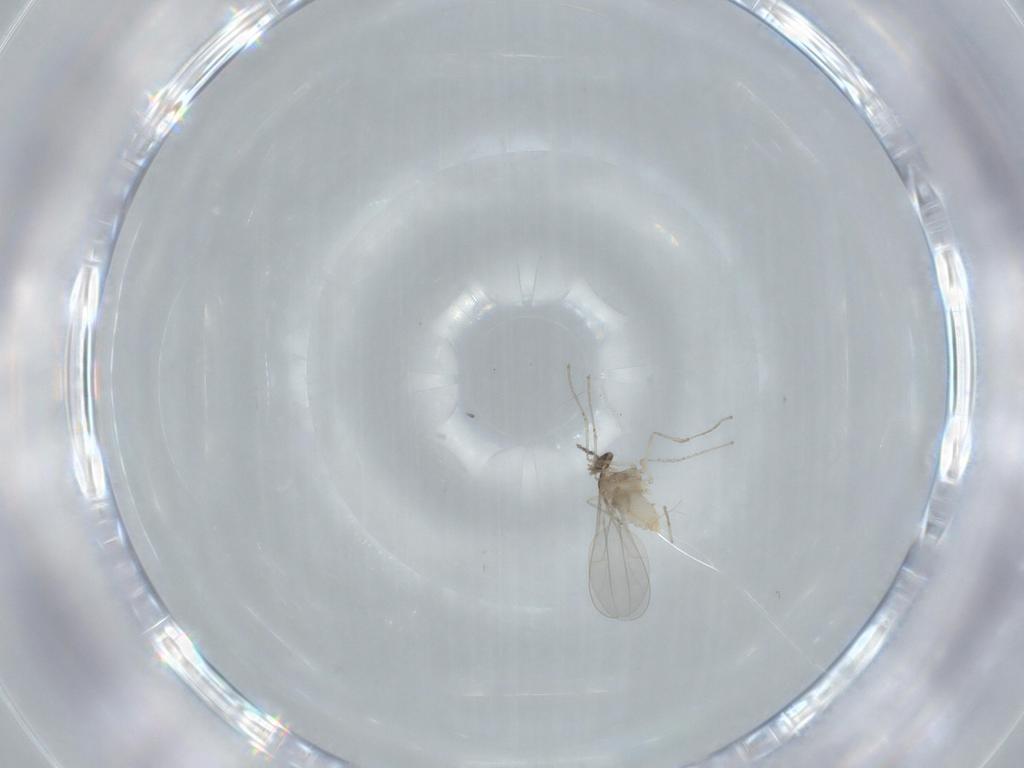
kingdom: Animalia
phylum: Arthropoda
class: Insecta
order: Diptera
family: Cecidomyiidae
